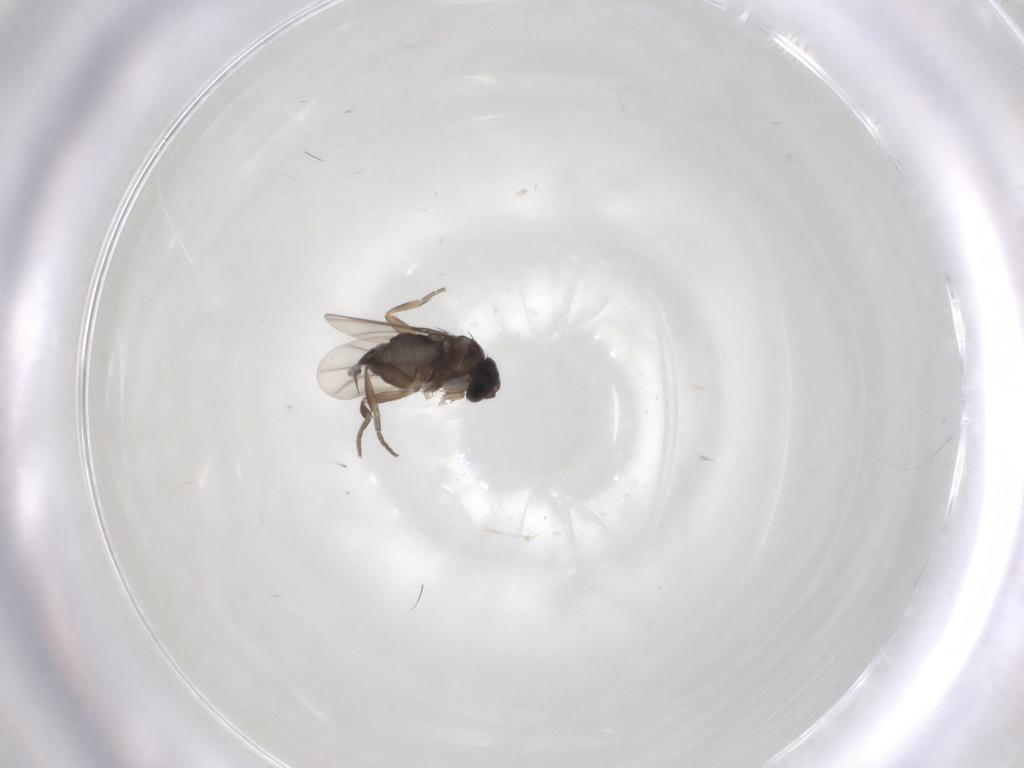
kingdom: Animalia
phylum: Arthropoda
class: Insecta
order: Diptera
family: Phoridae
